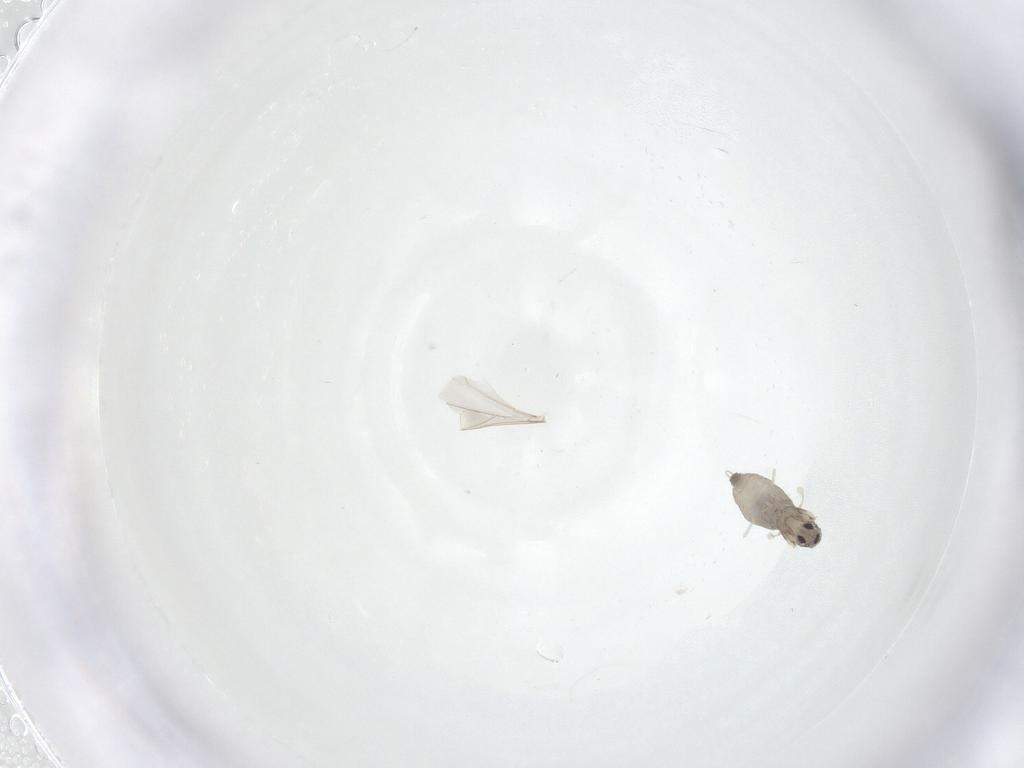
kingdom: Animalia
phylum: Arthropoda
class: Insecta
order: Diptera
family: Cecidomyiidae
